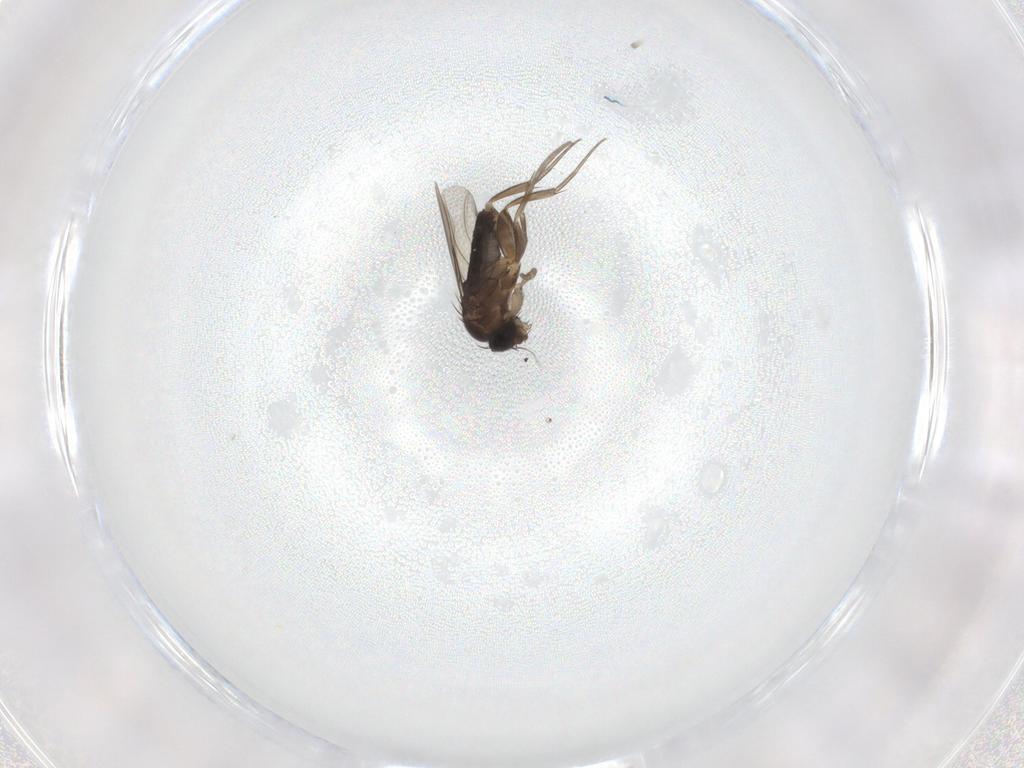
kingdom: Animalia
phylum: Arthropoda
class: Insecta
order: Diptera
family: Phoridae
